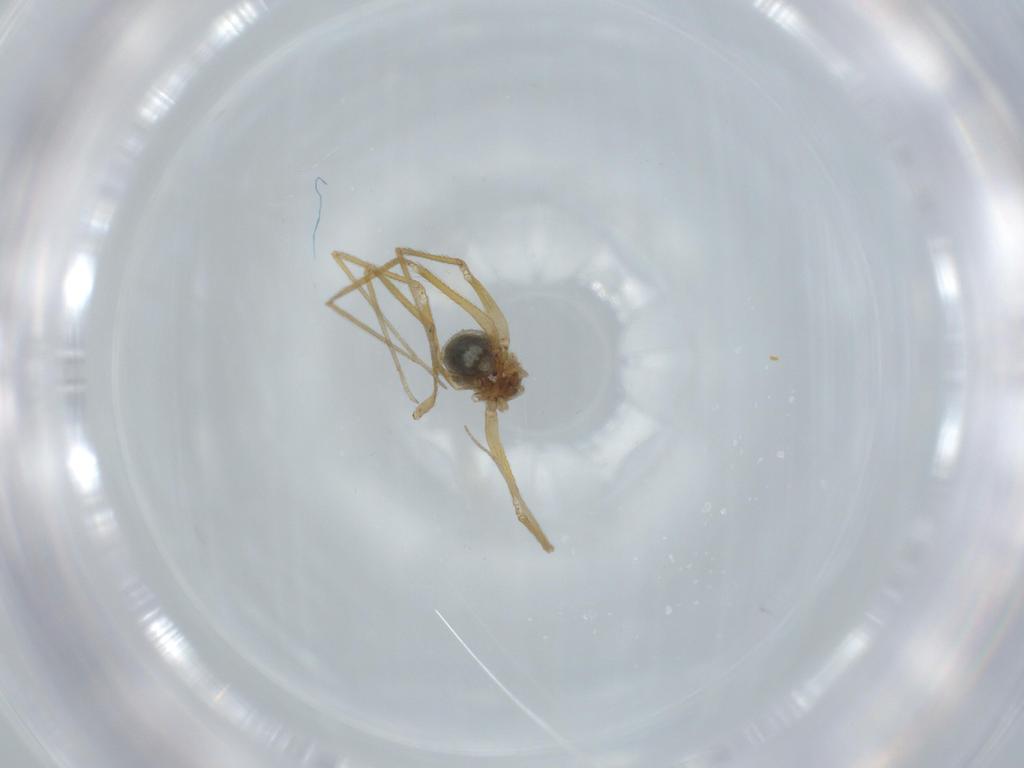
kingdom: Animalia
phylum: Arthropoda
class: Arachnida
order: Araneae
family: Pholcidae
